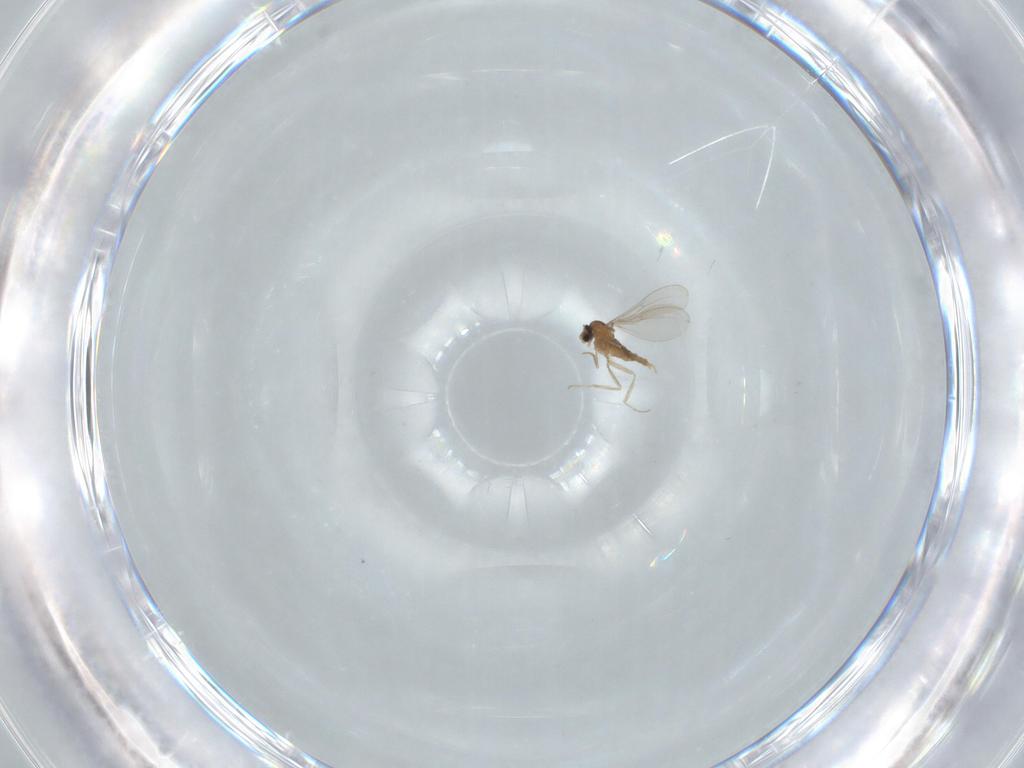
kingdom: Animalia
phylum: Arthropoda
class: Insecta
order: Diptera
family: Cecidomyiidae
